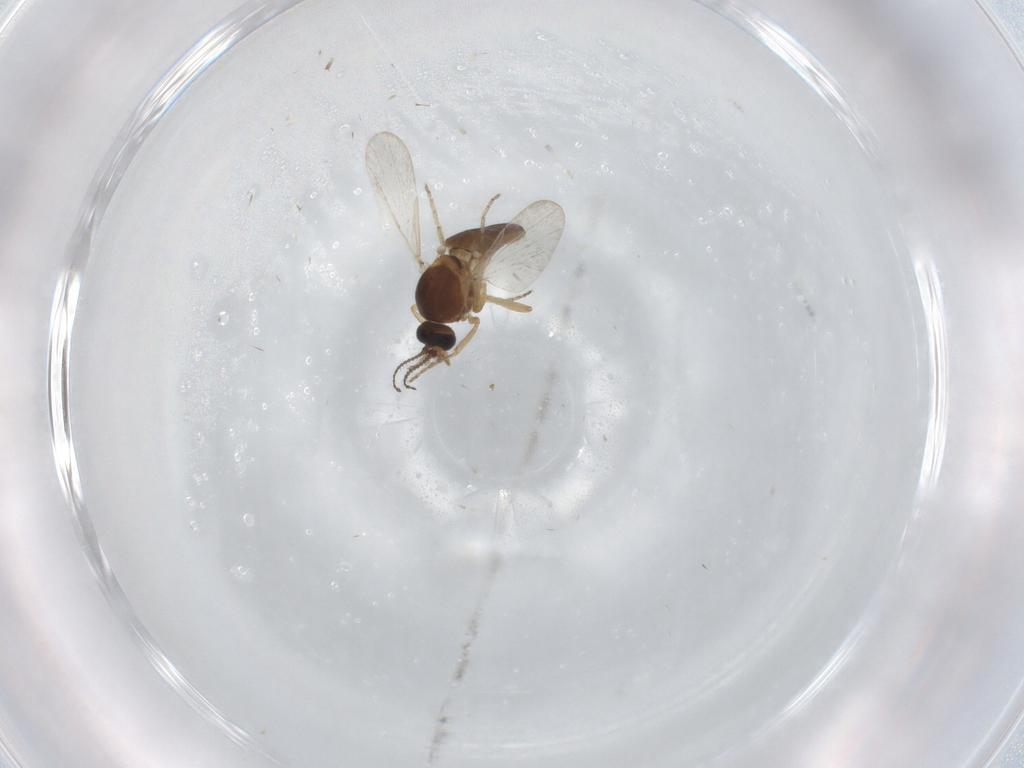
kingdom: Animalia
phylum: Arthropoda
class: Insecta
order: Diptera
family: Ceratopogonidae
